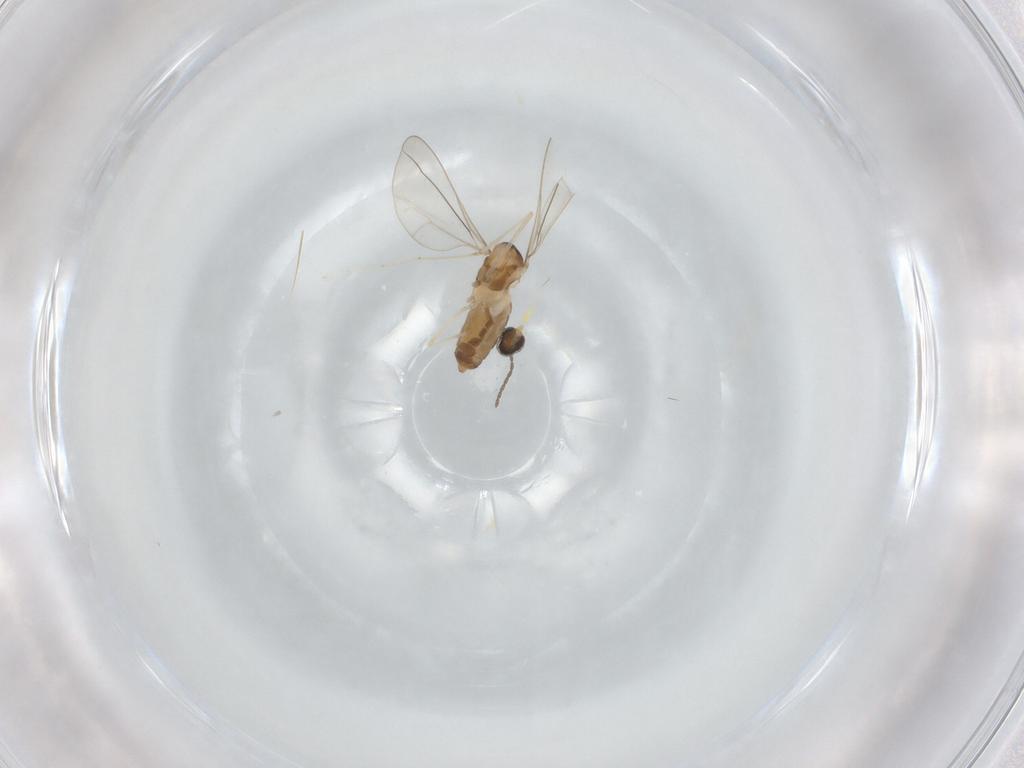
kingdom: Animalia
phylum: Arthropoda
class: Insecta
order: Diptera
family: Cecidomyiidae
